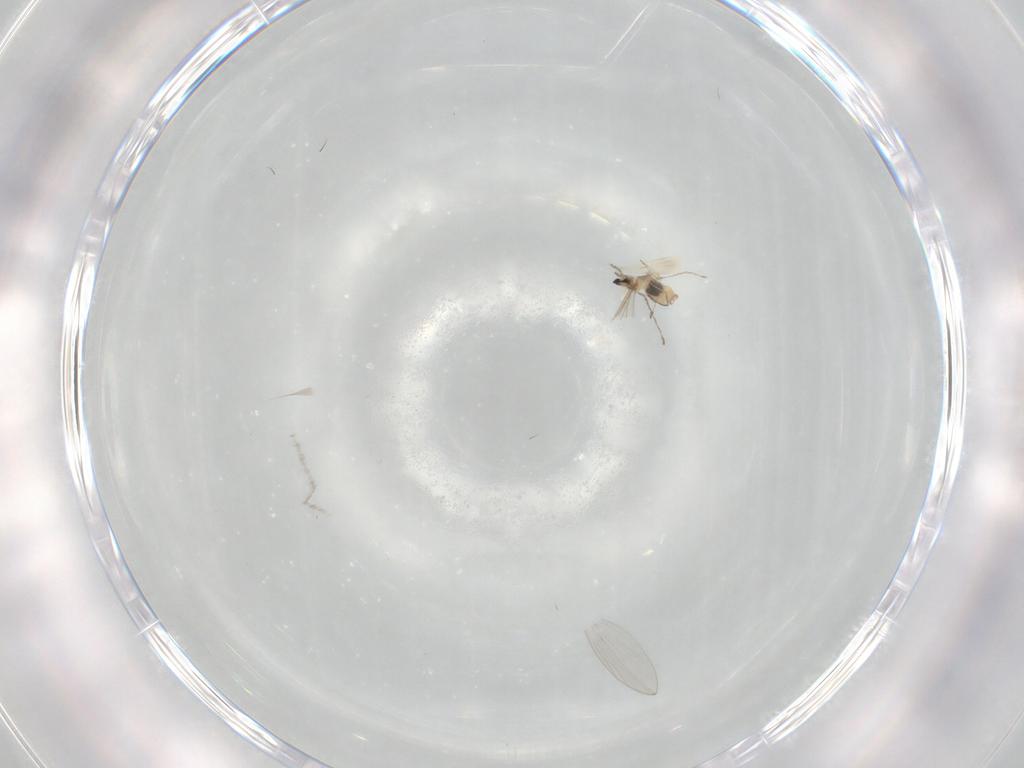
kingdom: Animalia
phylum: Arthropoda
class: Insecta
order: Diptera
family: Cecidomyiidae
